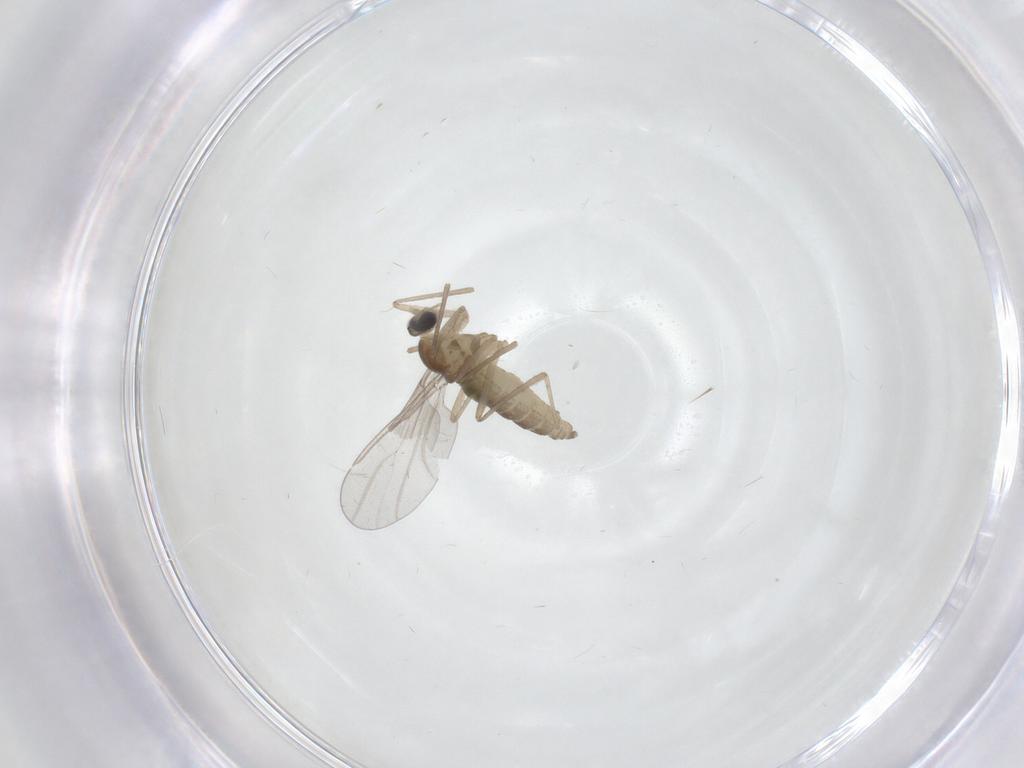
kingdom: Animalia
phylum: Arthropoda
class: Insecta
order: Diptera
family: Cecidomyiidae
